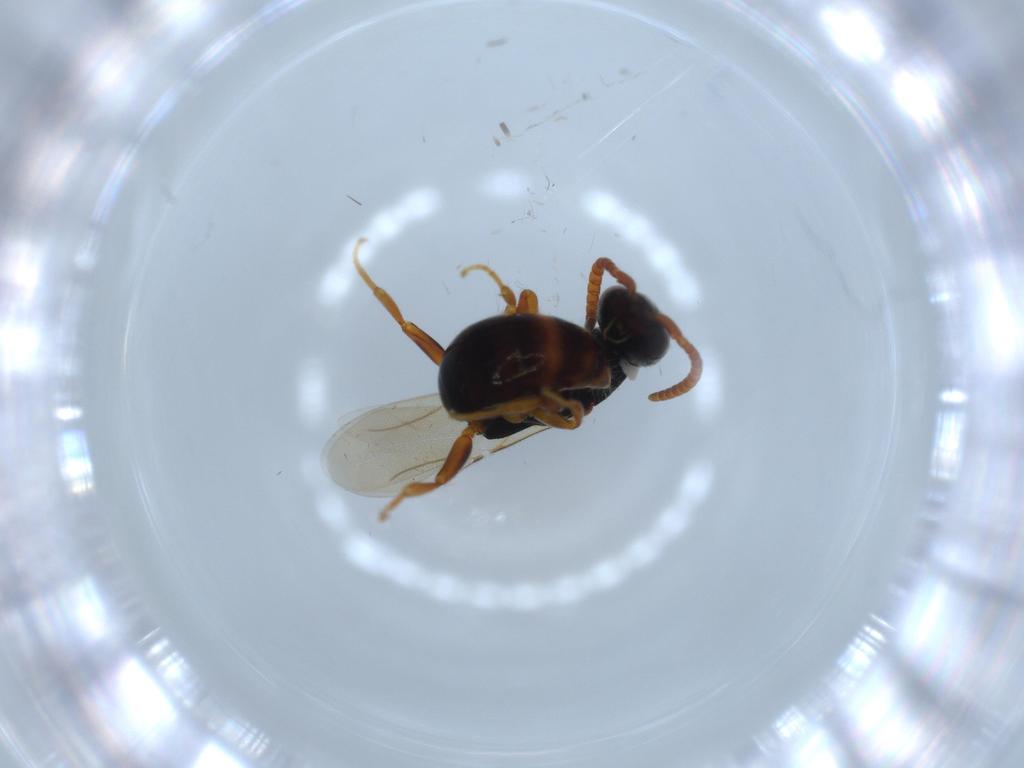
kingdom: Animalia
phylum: Arthropoda
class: Insecta
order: Hymenoptera
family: Bethylidae
